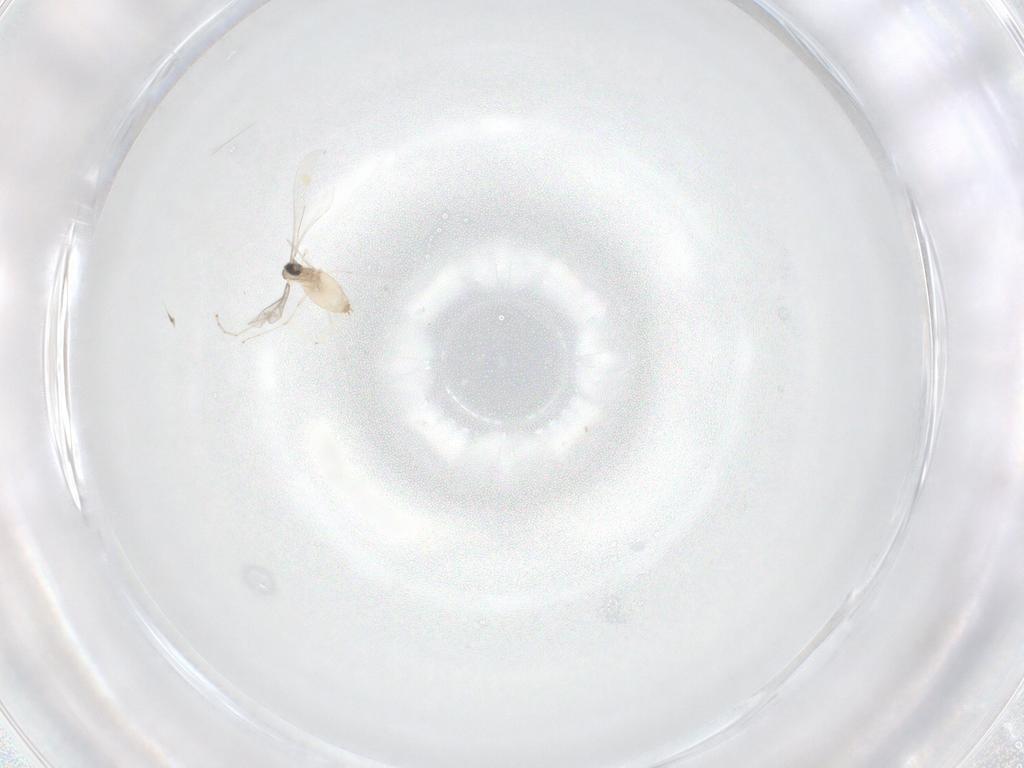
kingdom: Animalia
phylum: Arthropoda
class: Insecta
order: Diptera
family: Cecidomyiidae
